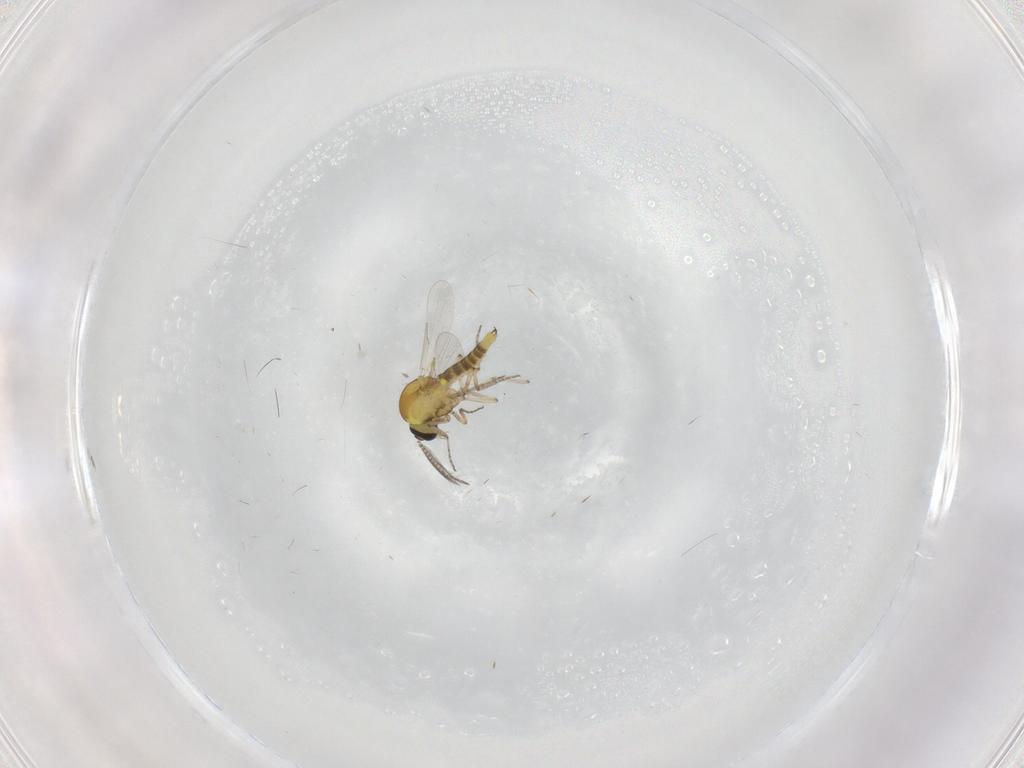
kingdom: Animalia
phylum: Arthropoda
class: Insecta
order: Diptera
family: Ceratopogonidae
